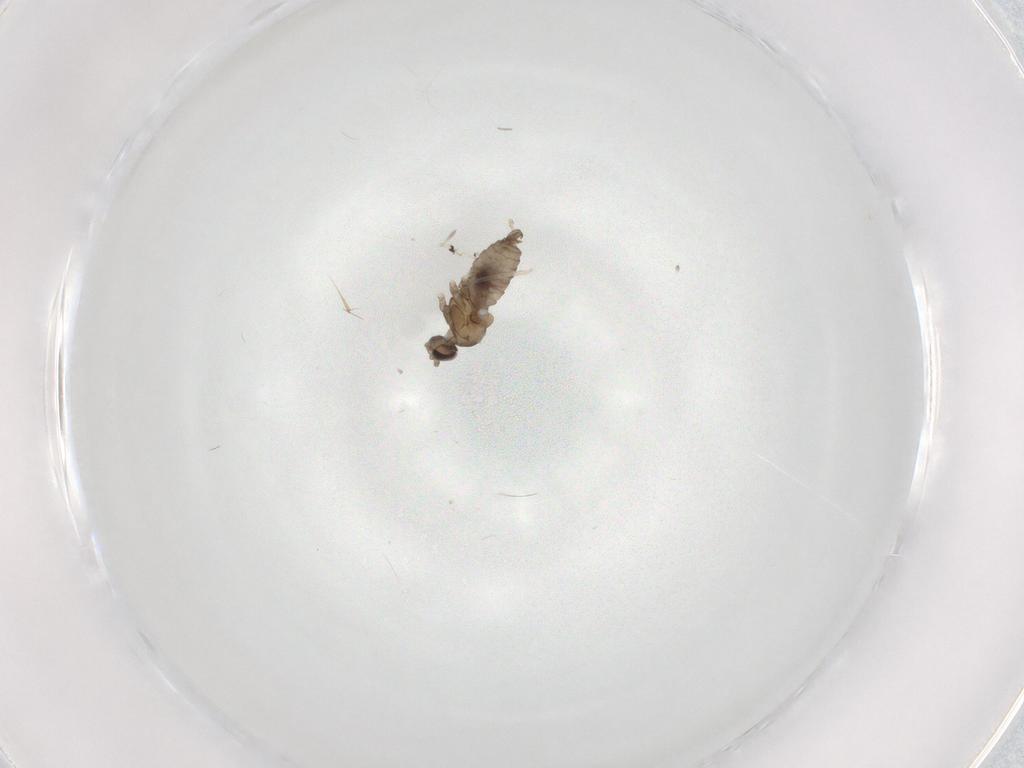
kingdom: Animalia
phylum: Arthropoda
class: Insecta
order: Diptera
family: Chironomidae
